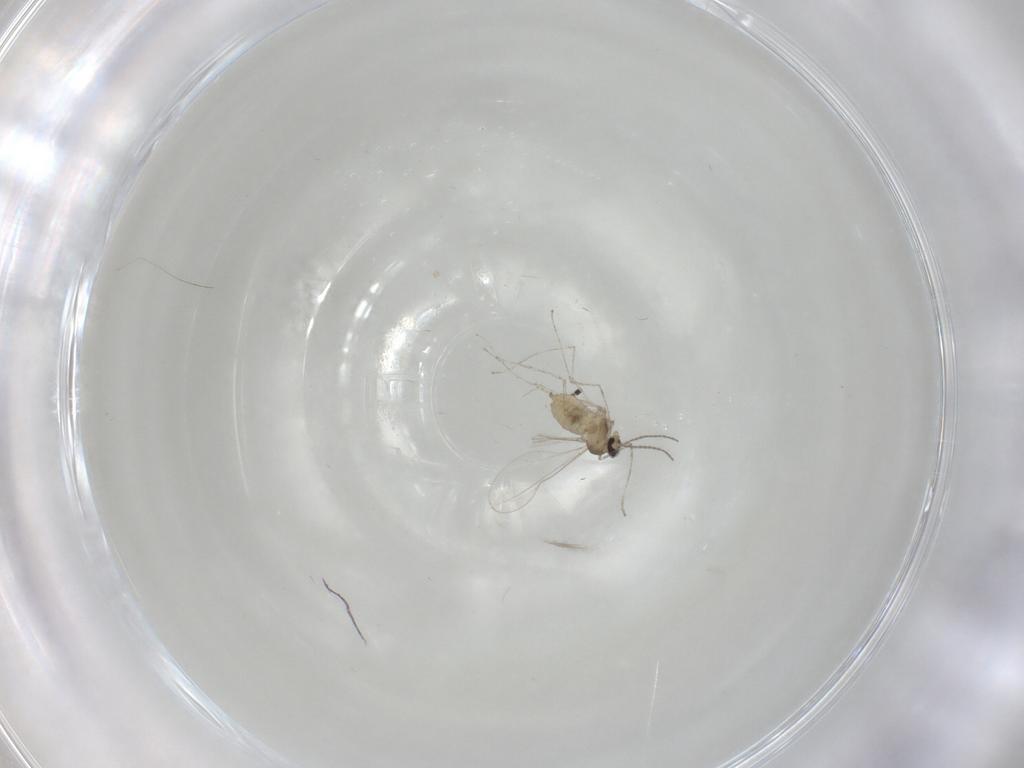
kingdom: Animalia
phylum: Arthropoda
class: Insecta
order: Diptera
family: Cecidomyiidae
